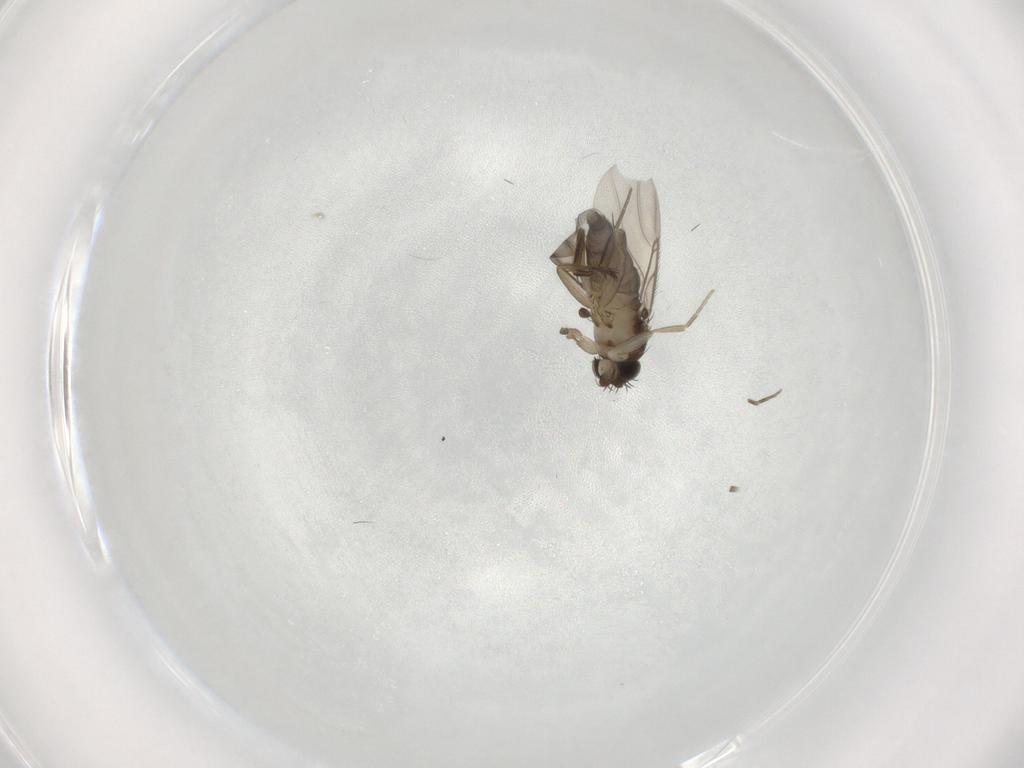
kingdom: Animalia
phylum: Arthropoda
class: Insecta
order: Diptera
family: Phoridae
